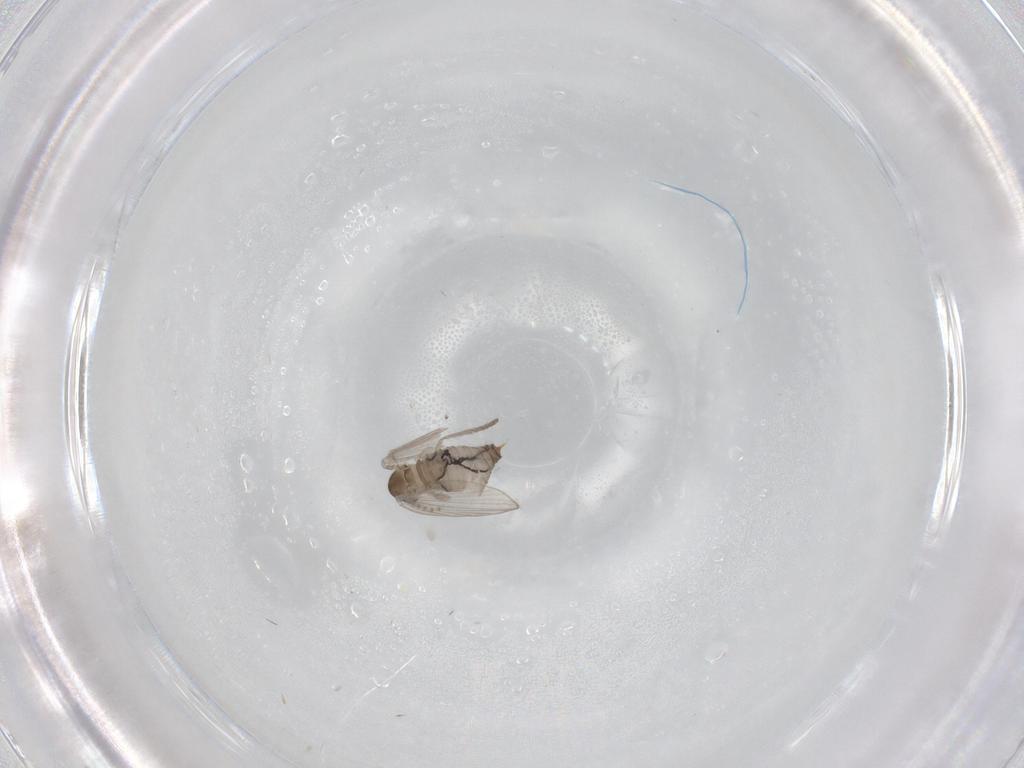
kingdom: Animalia
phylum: Arthropoda
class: Insecta
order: Diptera
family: Psychodidae
